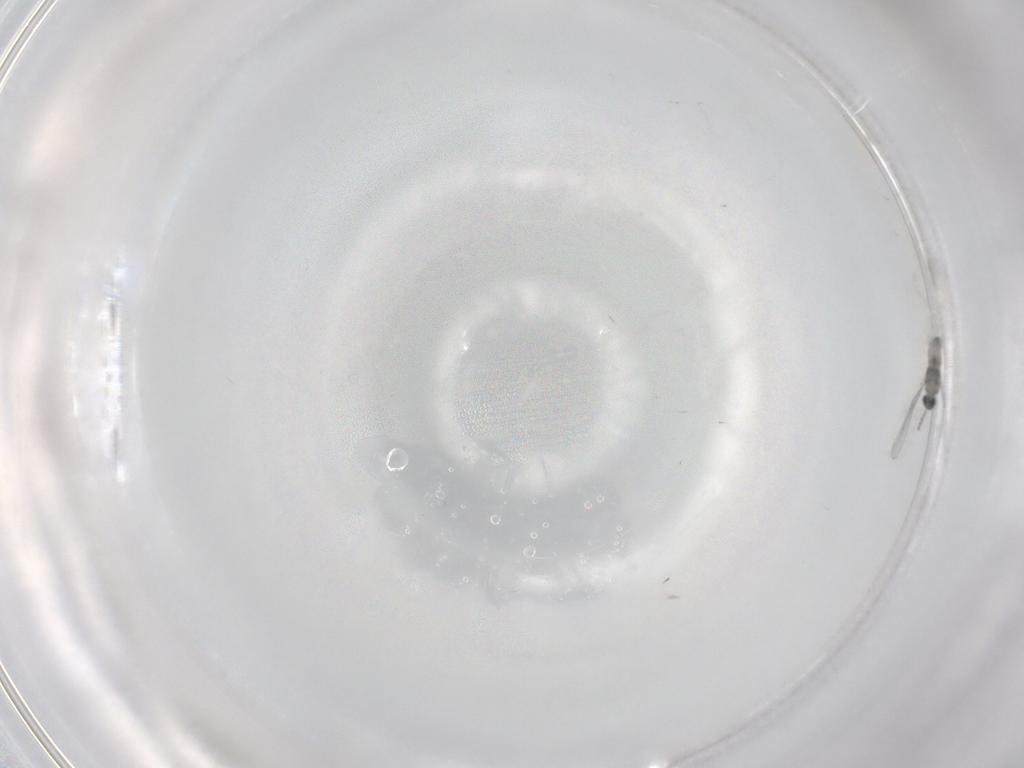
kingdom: Animalia
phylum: Arthropoda
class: Insecta
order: Diptera
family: Cecidomyiidae
